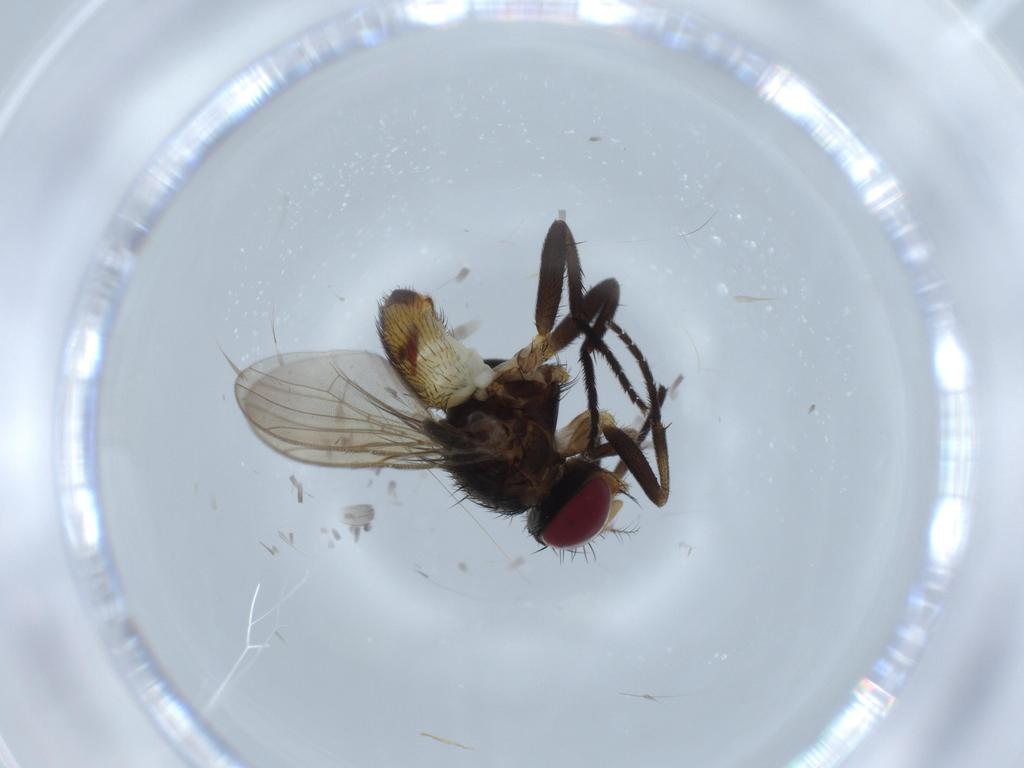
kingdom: Animalia
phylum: Arthropoda
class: Insecta
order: Diptera
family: Anthomyiidae
